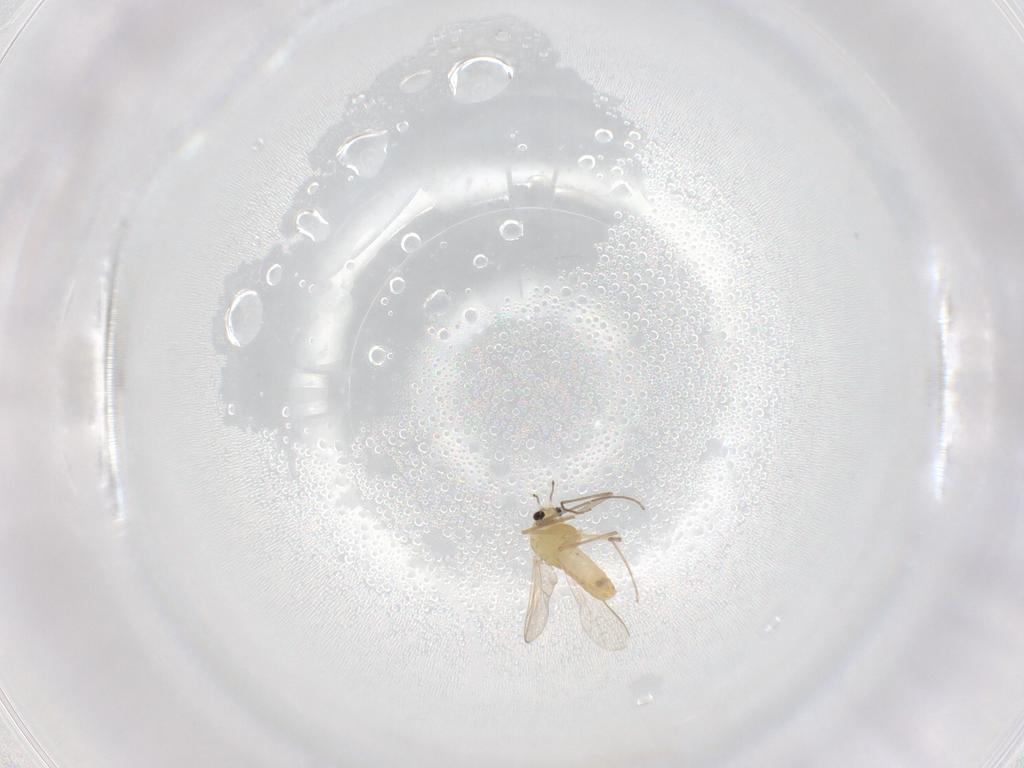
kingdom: Animalia
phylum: Arthropoda
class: Insecta
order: Diptera
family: Chironomidae
